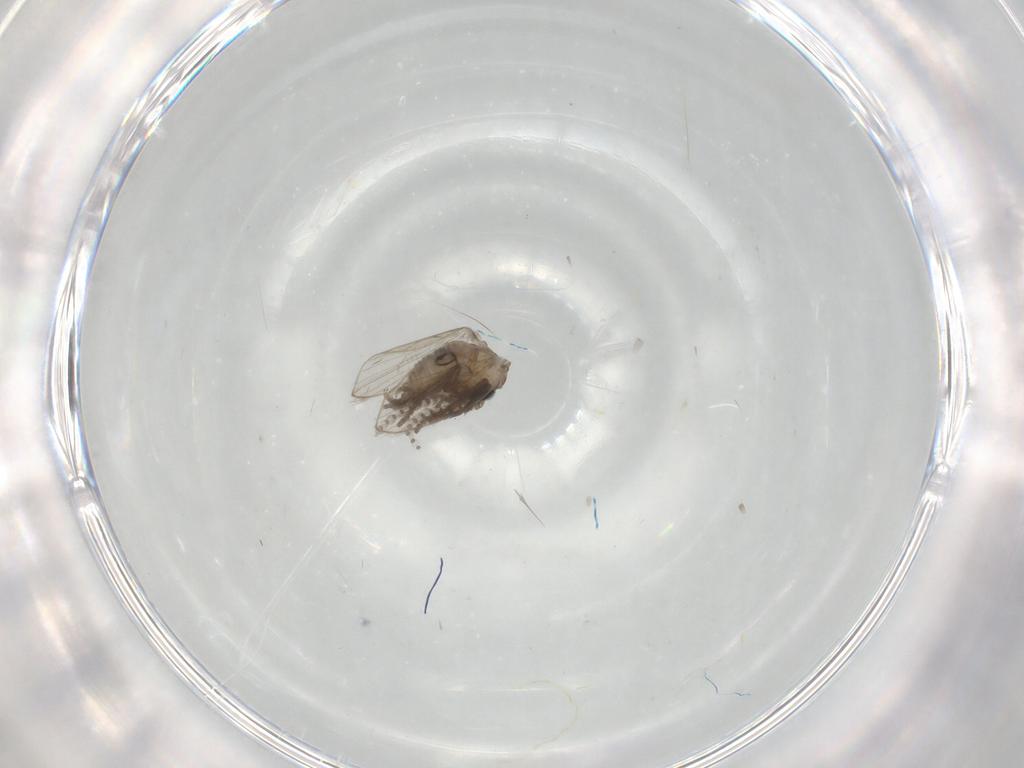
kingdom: Animalia
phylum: Arthropoda
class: Insecta
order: Diptera
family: Psychodidae
